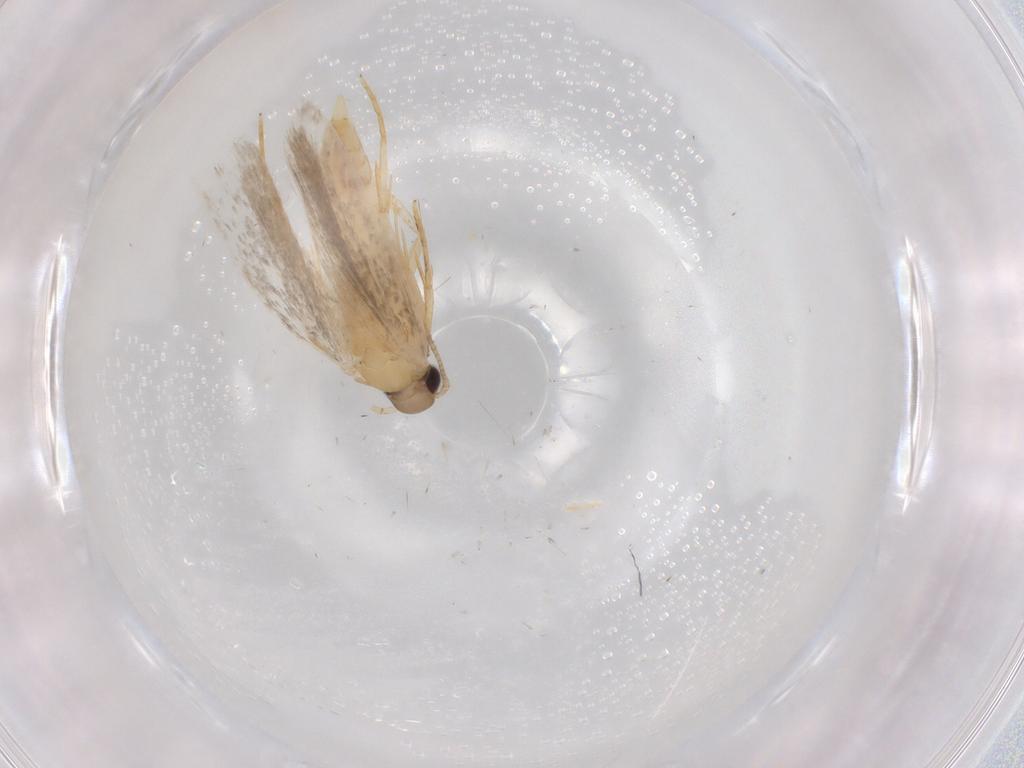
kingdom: Animalia
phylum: Arthropoda
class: Insecta
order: Lepidoptera
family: Autostichidae
